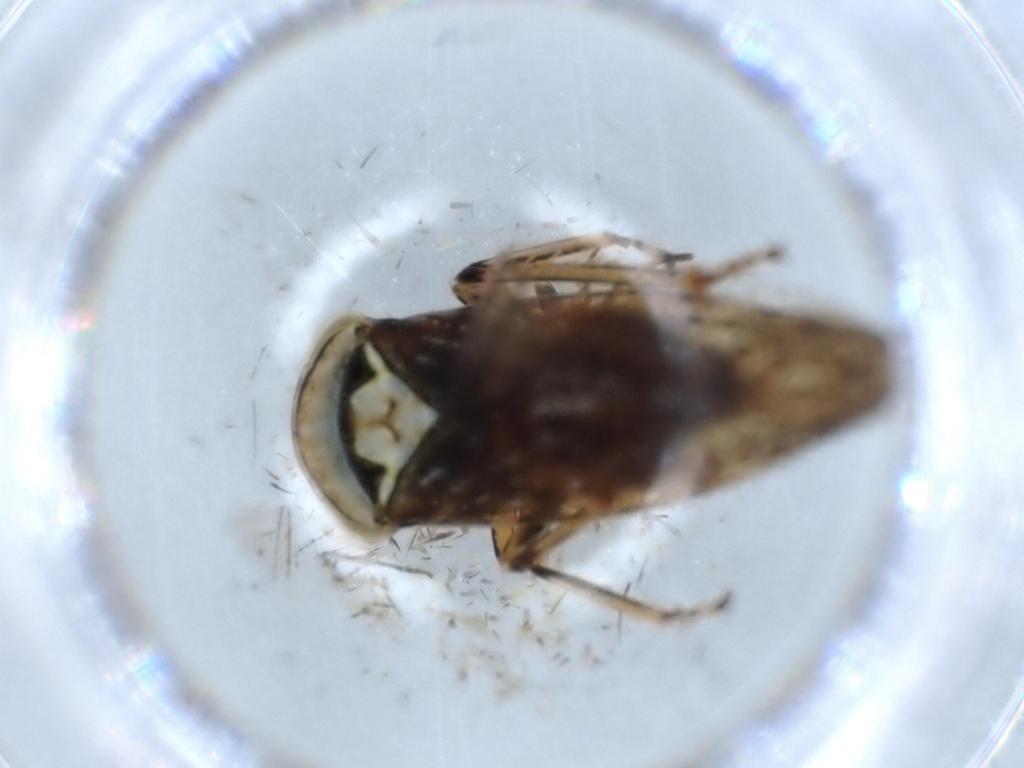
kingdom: Animalia
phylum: Arthropoda
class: Insecta
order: Hemiptera
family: Cicadellidae
